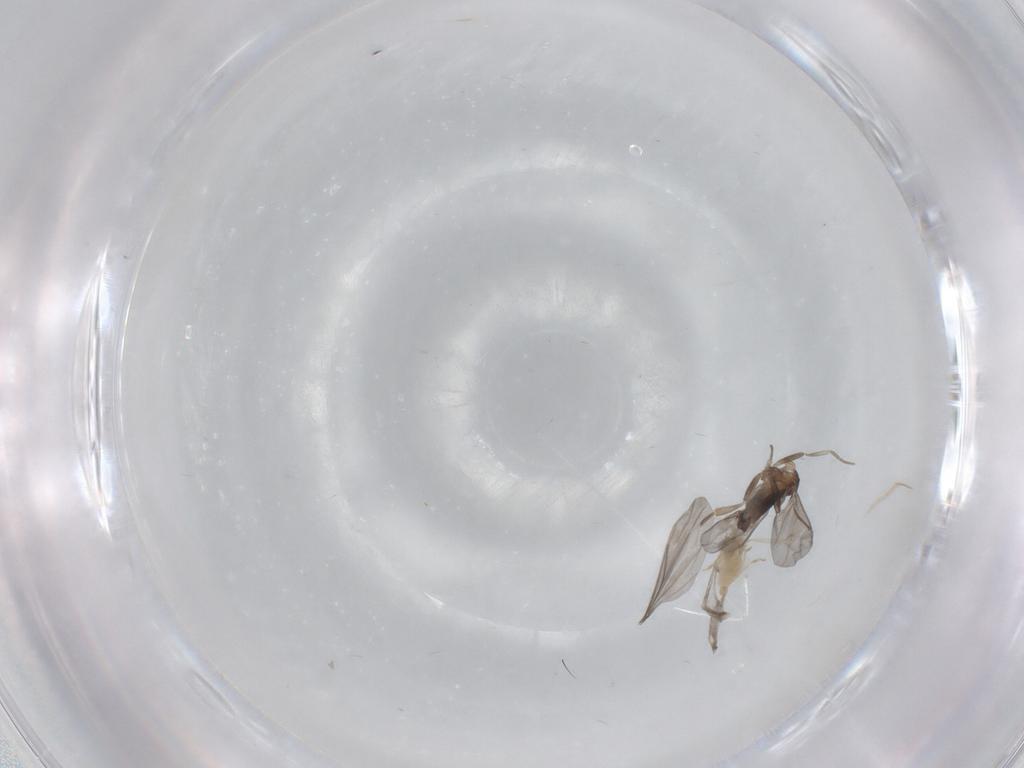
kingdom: Animalia
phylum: Arthropoda
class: Insecta
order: Diptera
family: Chironomidae
